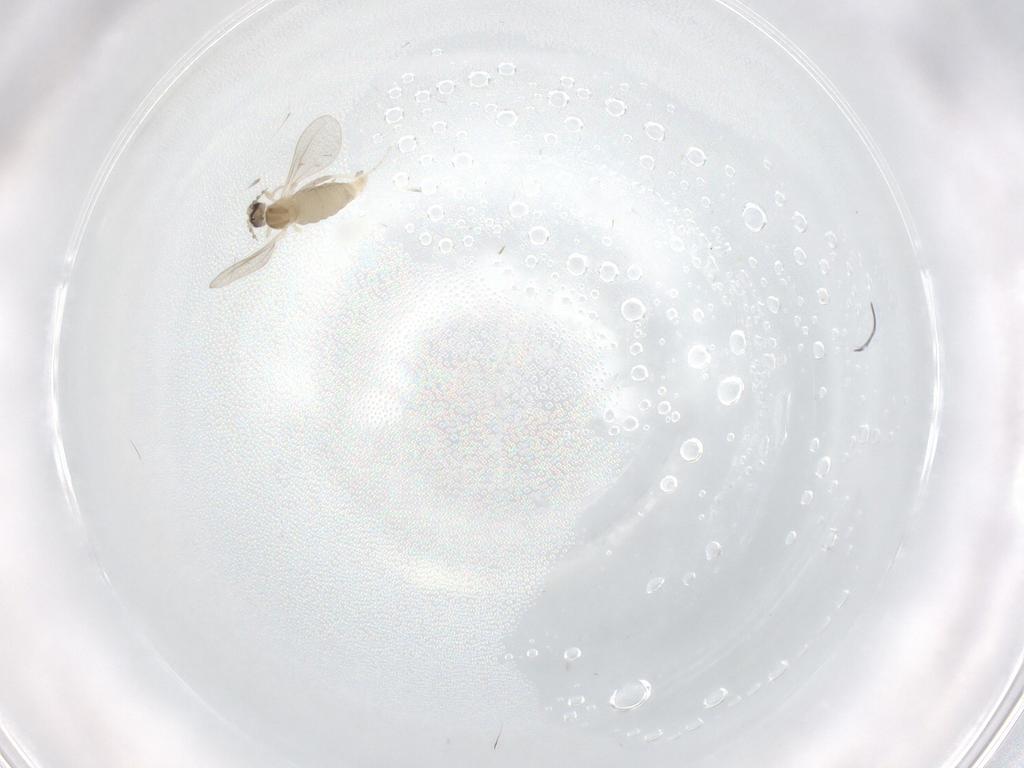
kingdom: Animalia
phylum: Arthropoda
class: Insecta
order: Diptera
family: Cecidomyiidae
